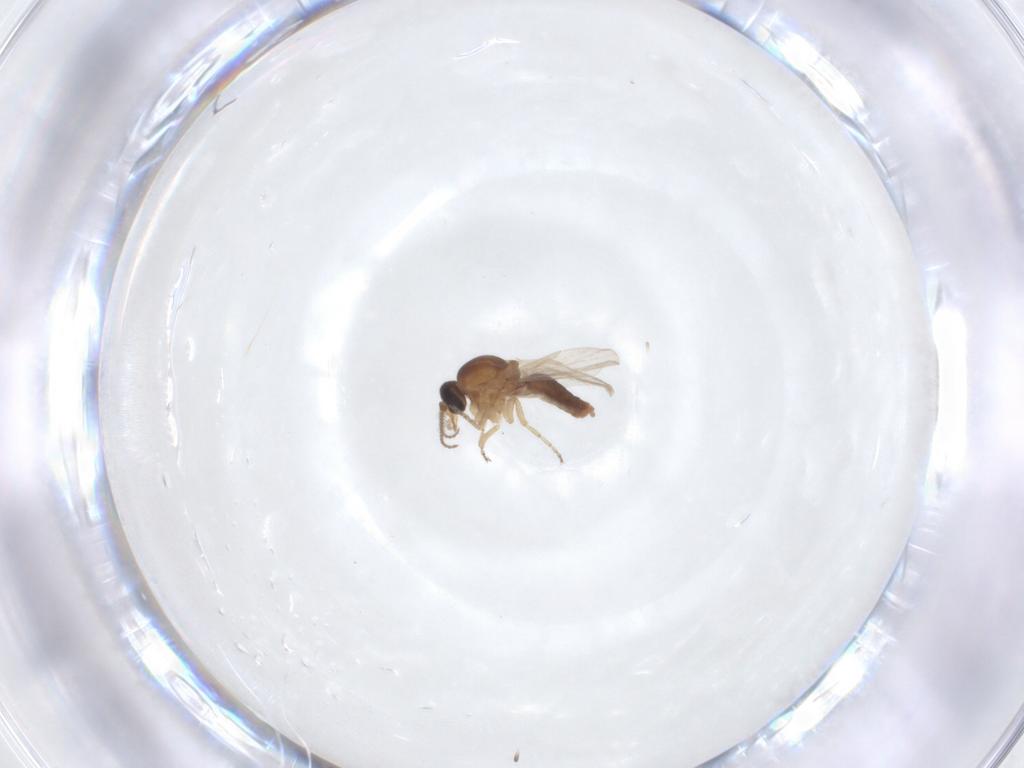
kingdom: Animalia
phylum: Arthropoda
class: Insecta
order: Diptera
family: Ceratopogonidae
